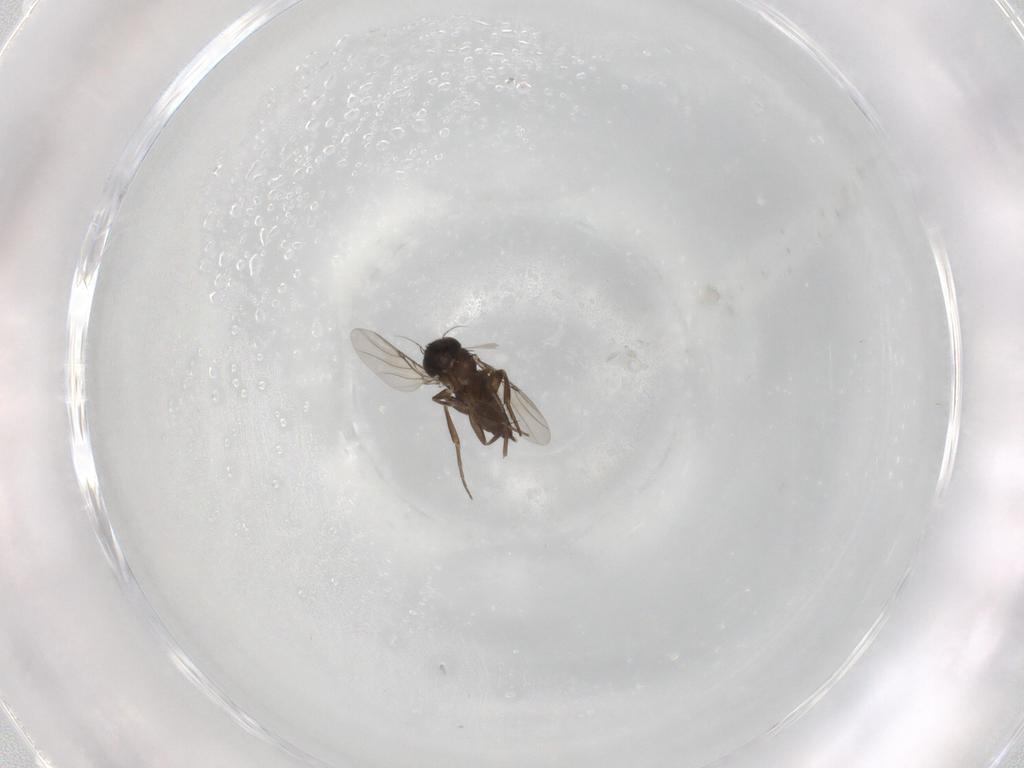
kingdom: Animalia
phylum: Arthropoda
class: Insecta
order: Diptera
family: Phoridae
